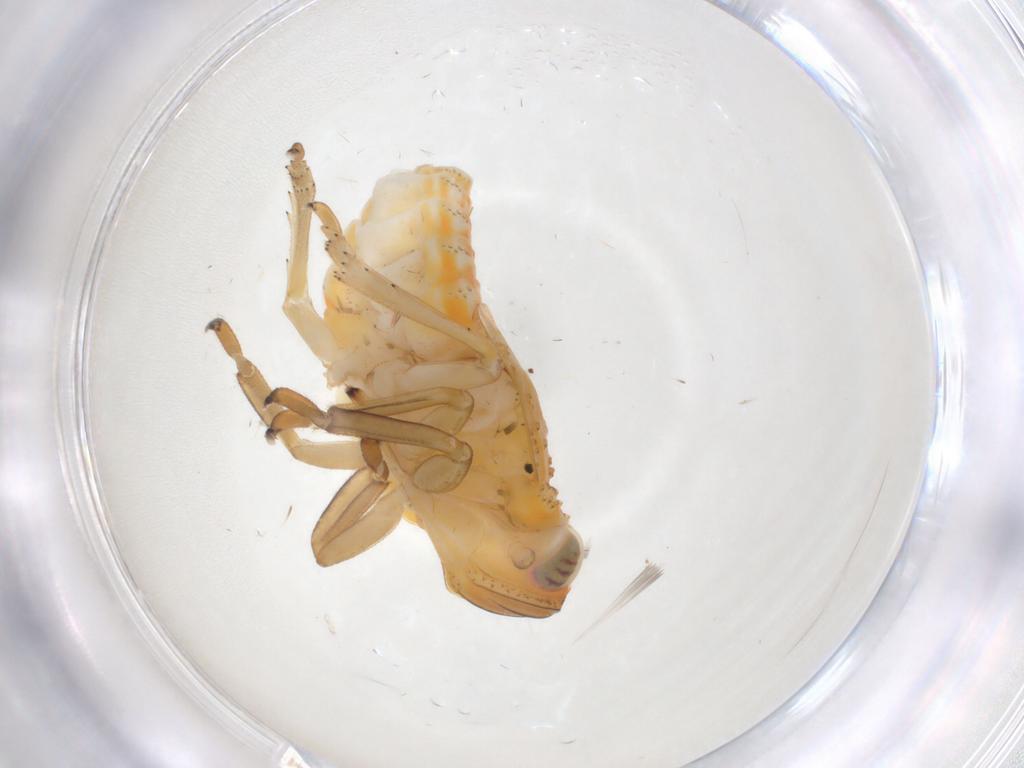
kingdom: Animalia
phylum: Arthropoda
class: Insecta
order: Hemiptera
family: Issidae
